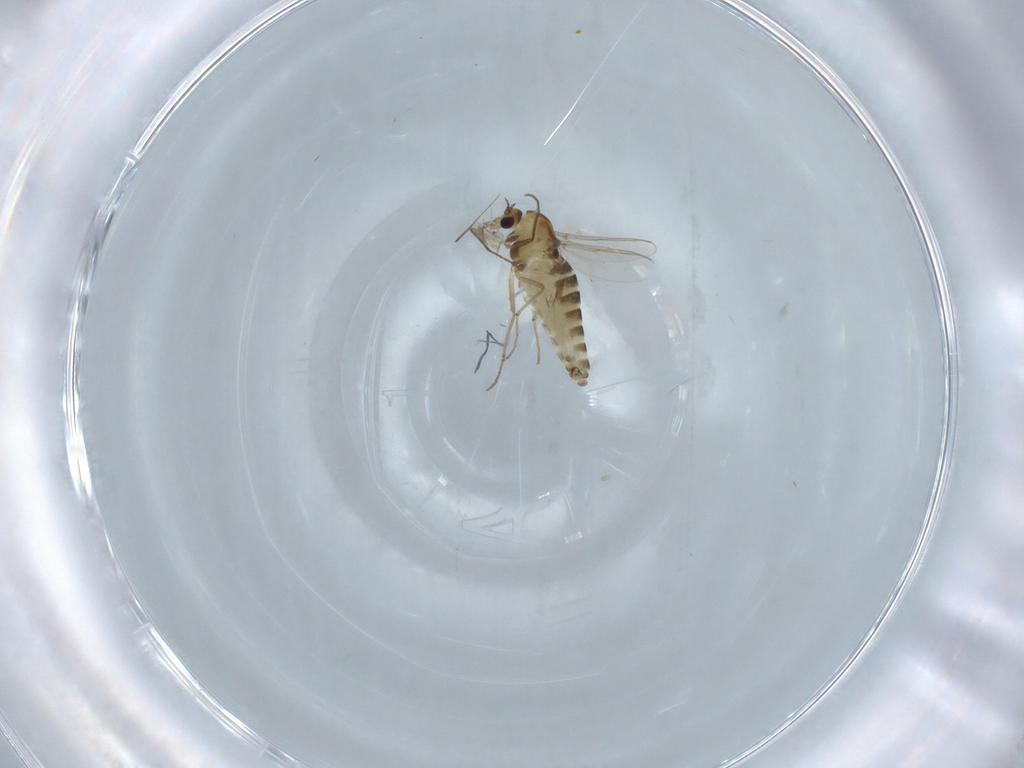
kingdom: Animalia
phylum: Arthropoda
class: Insecta
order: Diptera
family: Chironomidae
